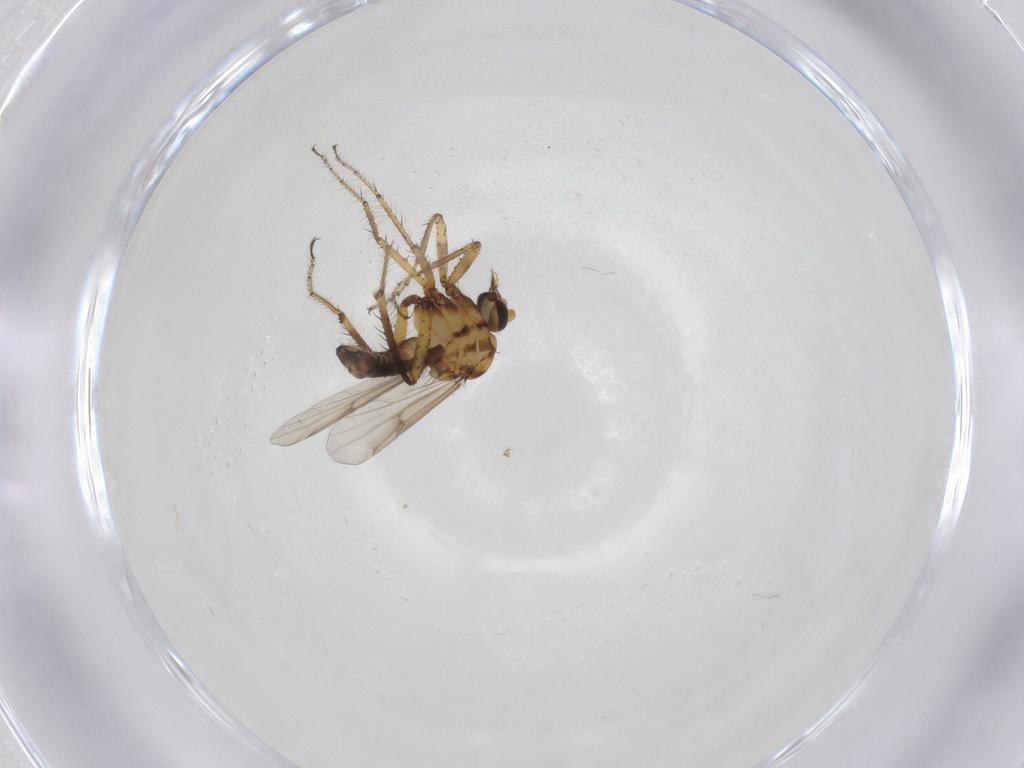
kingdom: Animalia
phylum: Arthropoda
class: Insecta
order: Diptera
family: Ceratopogonidae
